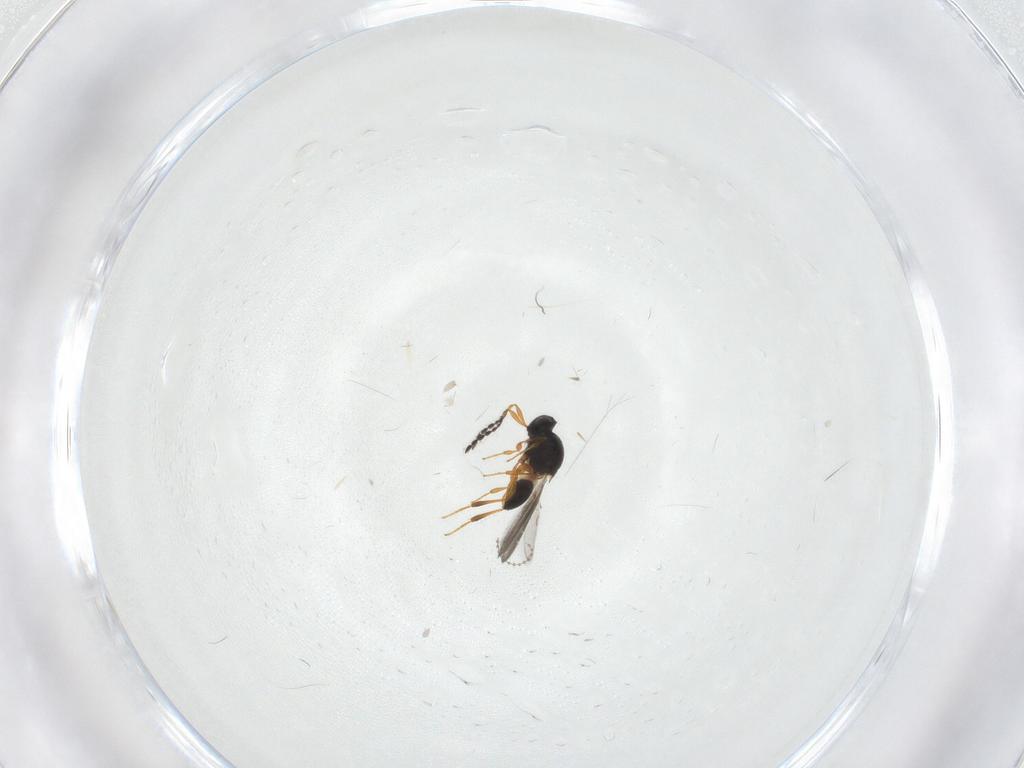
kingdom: Animalia
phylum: Arthropoda
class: Insecta
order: Hymenoptera
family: Platygastridae
